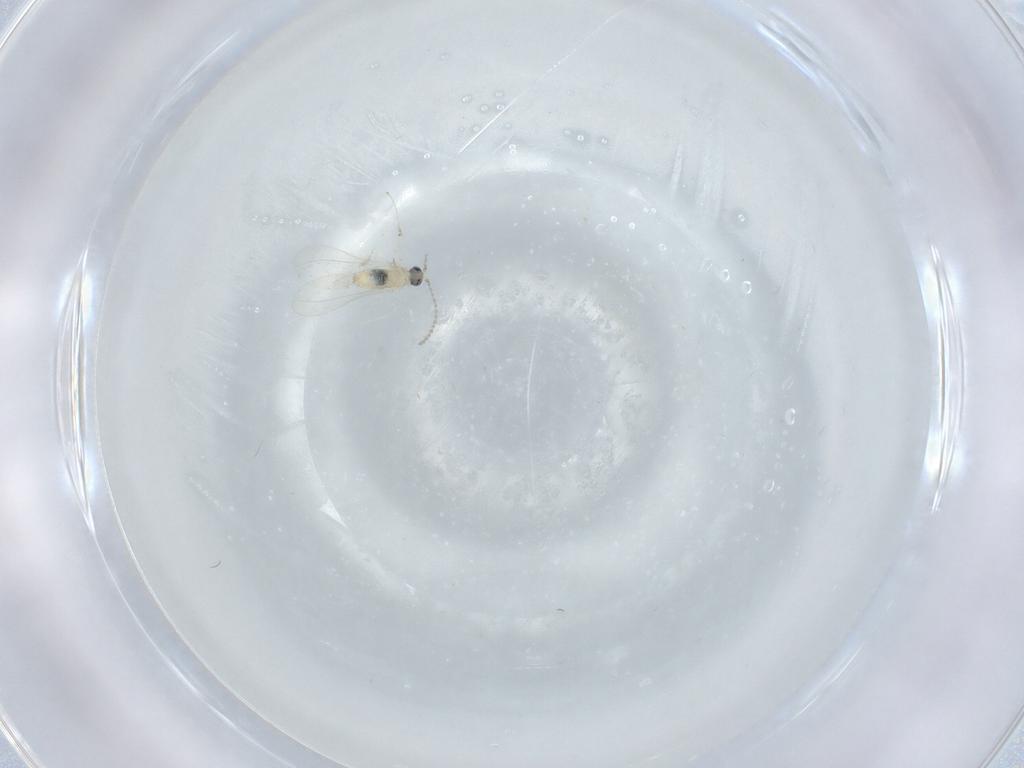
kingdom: Animalia
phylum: Arthropoda
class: Insecta
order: Diptera
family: Cecidomyiidae
